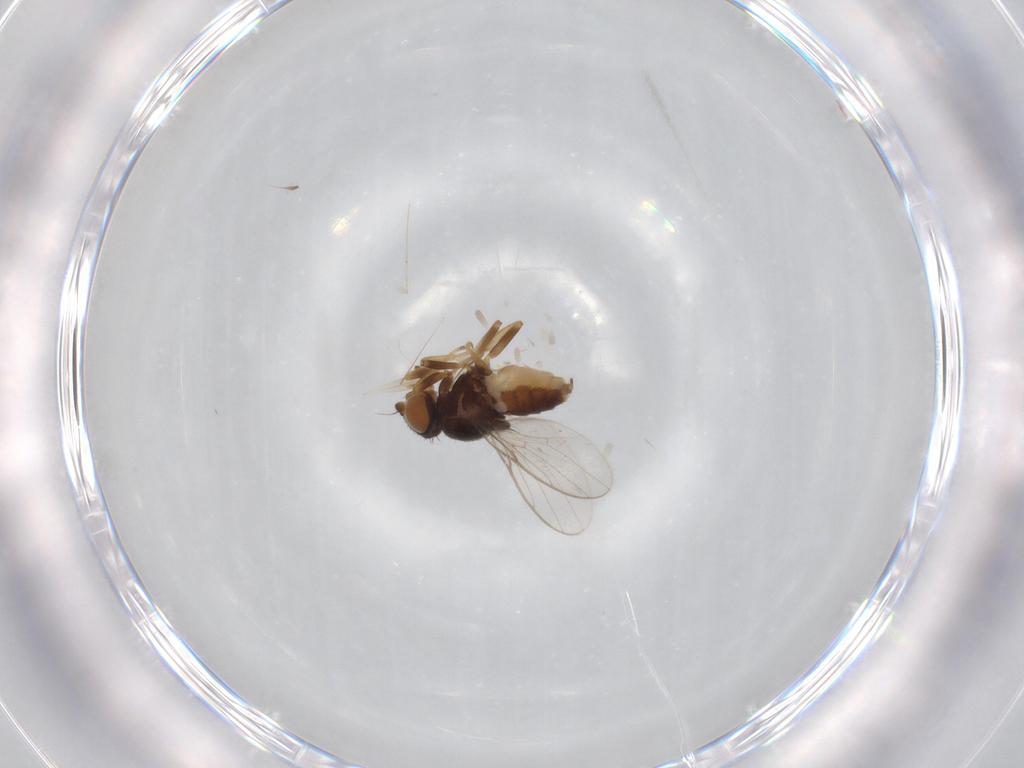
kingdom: Animalia
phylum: Arthropoda
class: Insecta
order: Diptera
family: Chloropidae
